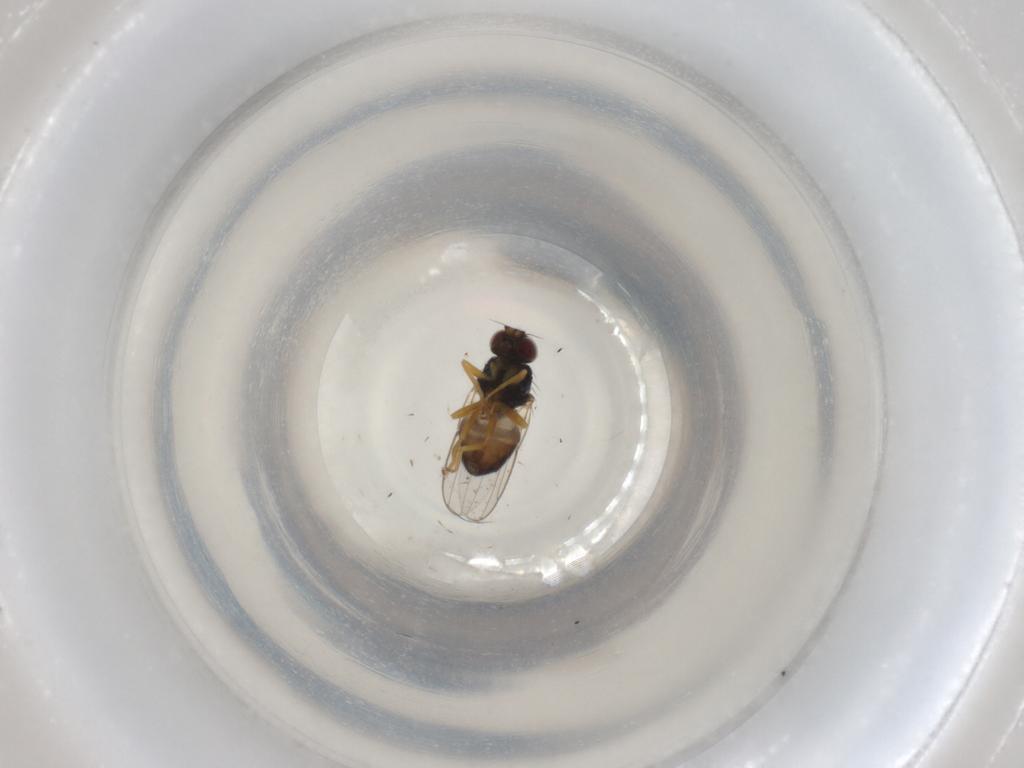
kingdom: Animalia
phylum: Arthropoda
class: Insecta
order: Diptera
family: Chloropidae
